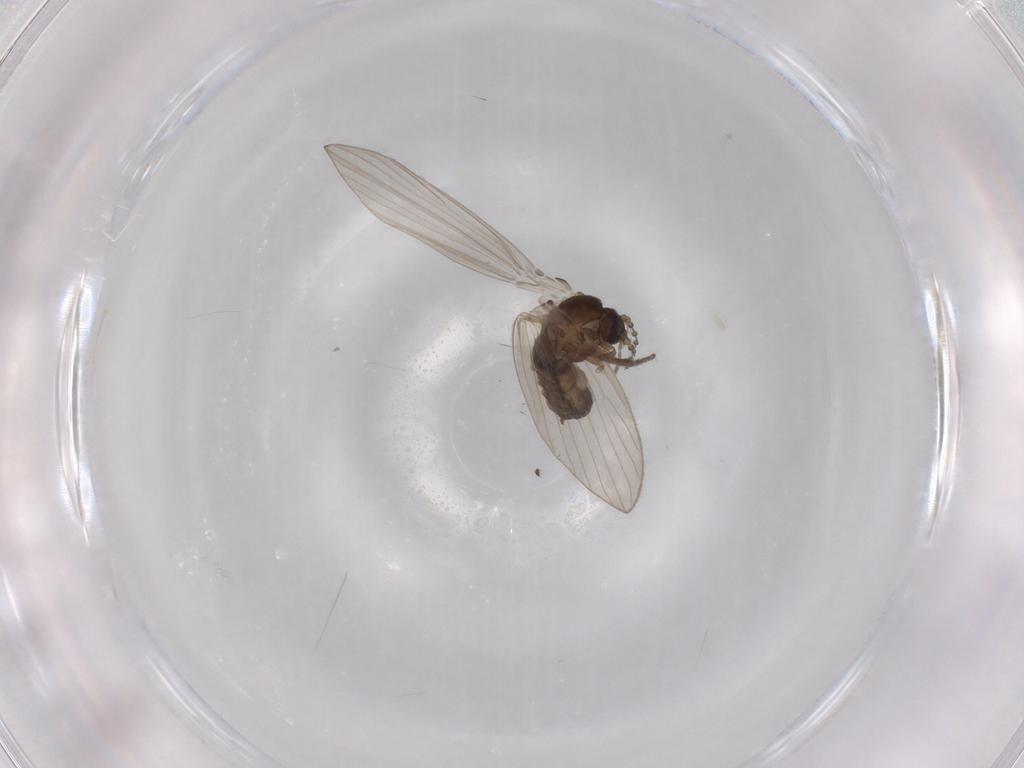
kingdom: Animalia
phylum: Arthropoda
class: Insecta
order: Diptera
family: Psychodidae
